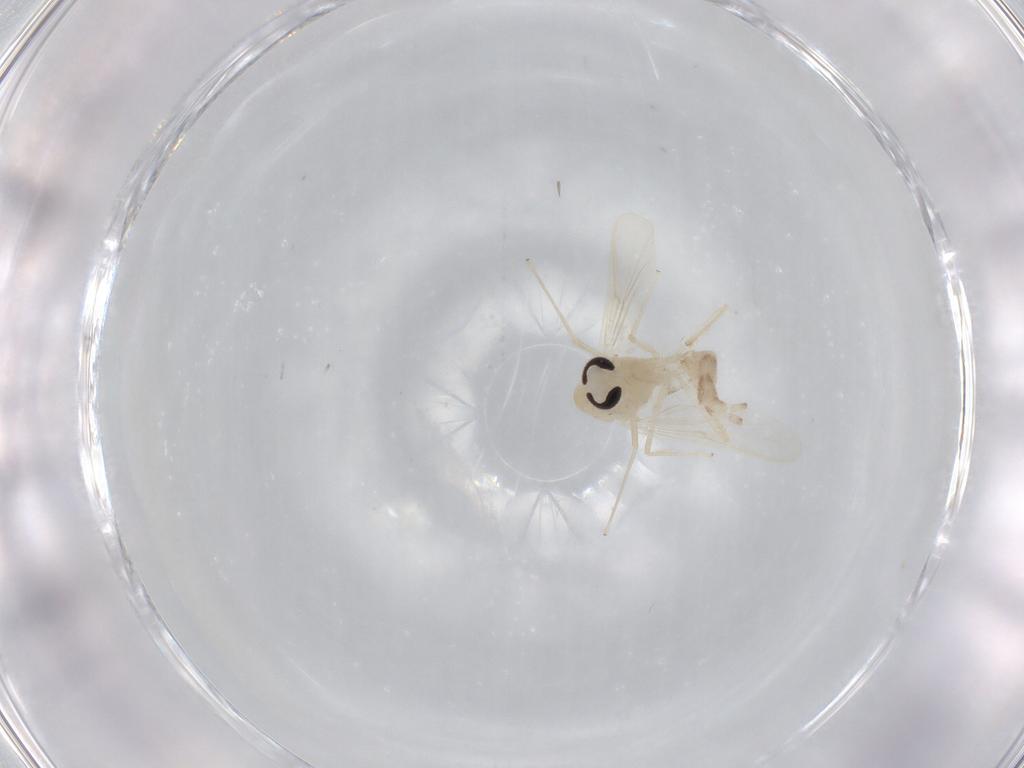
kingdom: Animalia
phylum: Arthropoda
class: Insecta
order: Diptera
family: Chironomidae
